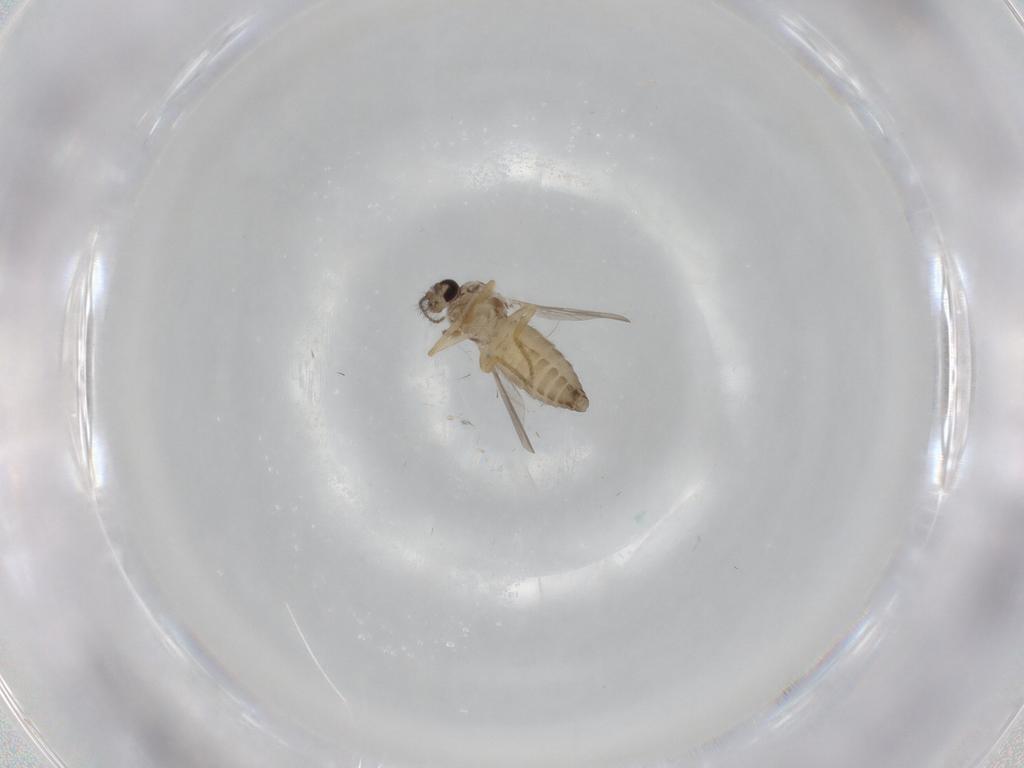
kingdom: Animalia
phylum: Arthropoda
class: Insecta
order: Diptera
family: Ceratopogonidae
